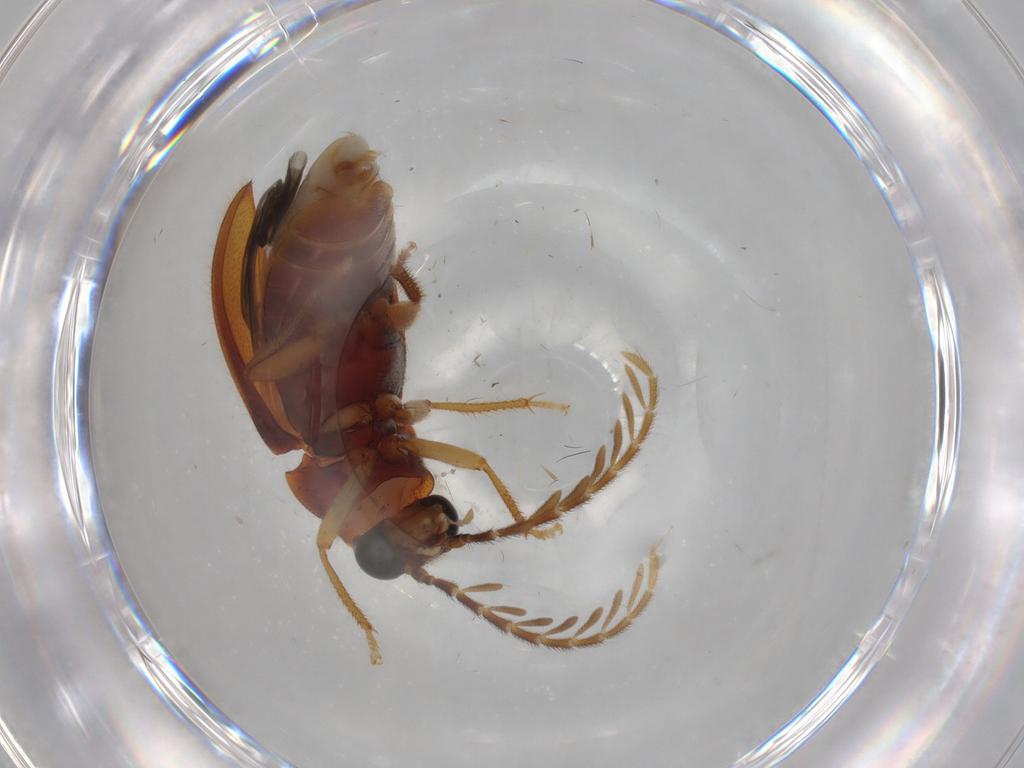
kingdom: Animalia
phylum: Arthropoda
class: Insecta
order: Coleoptera
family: Ptilodactylidae
